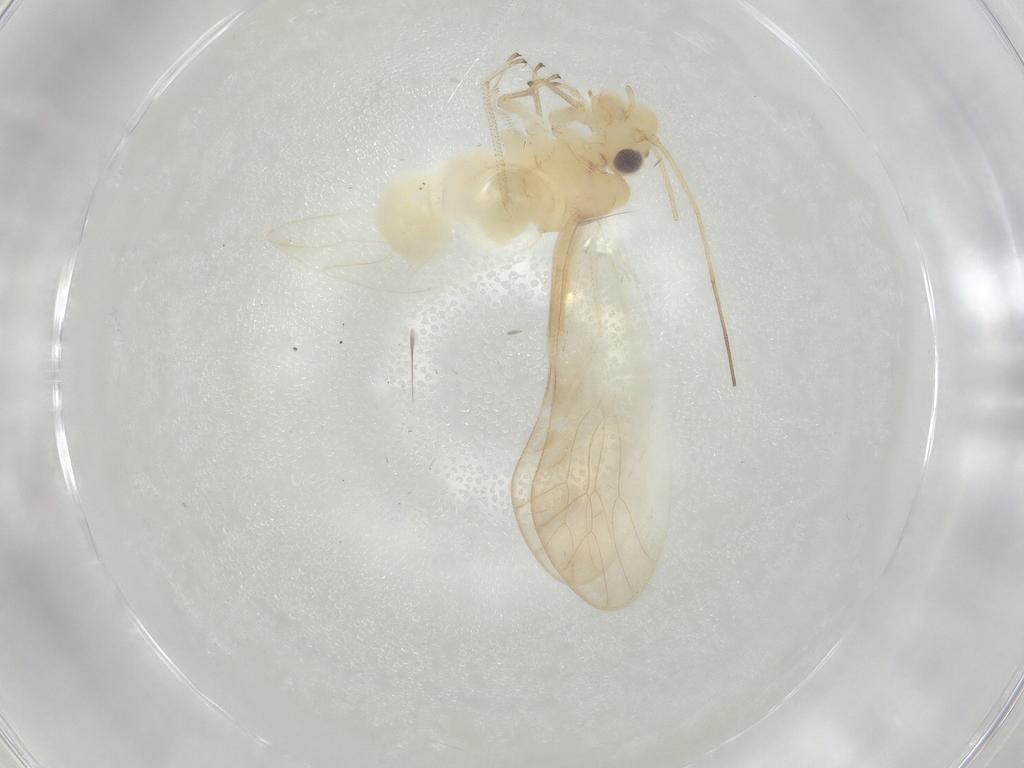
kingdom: Animalia
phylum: Arthropoda
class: Insecta
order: Psocodea
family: Caeciliusidae
